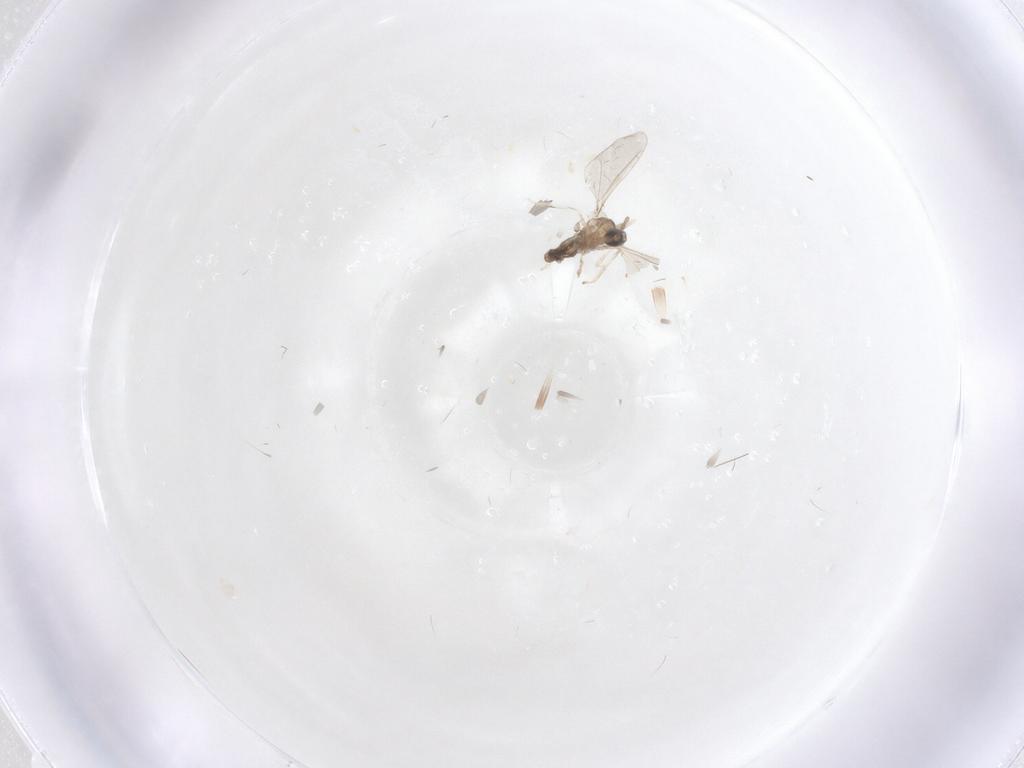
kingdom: Animalia
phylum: Arthropoda
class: Insecta
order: Diptera
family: Cecidomyiidae
